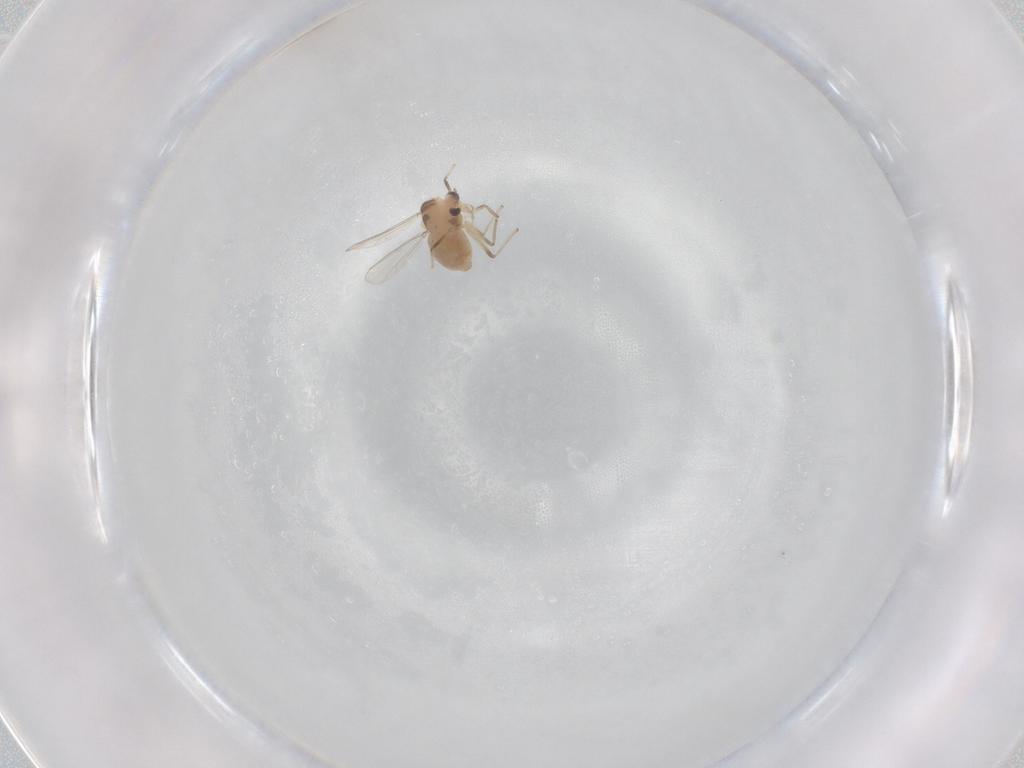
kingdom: Animalia
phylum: Arthropoda
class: Insecta
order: Diptera
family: Chironomidae
